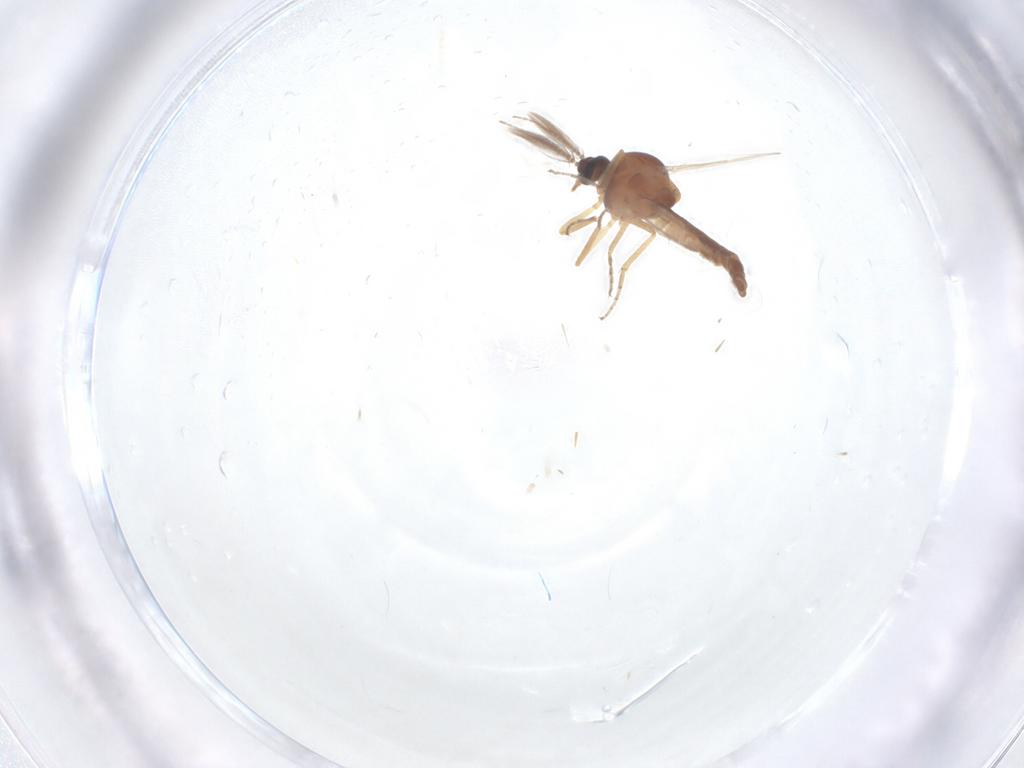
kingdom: Animalia
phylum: Arthropoda
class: Insecta
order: Diptera
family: Ceratopogonidae
